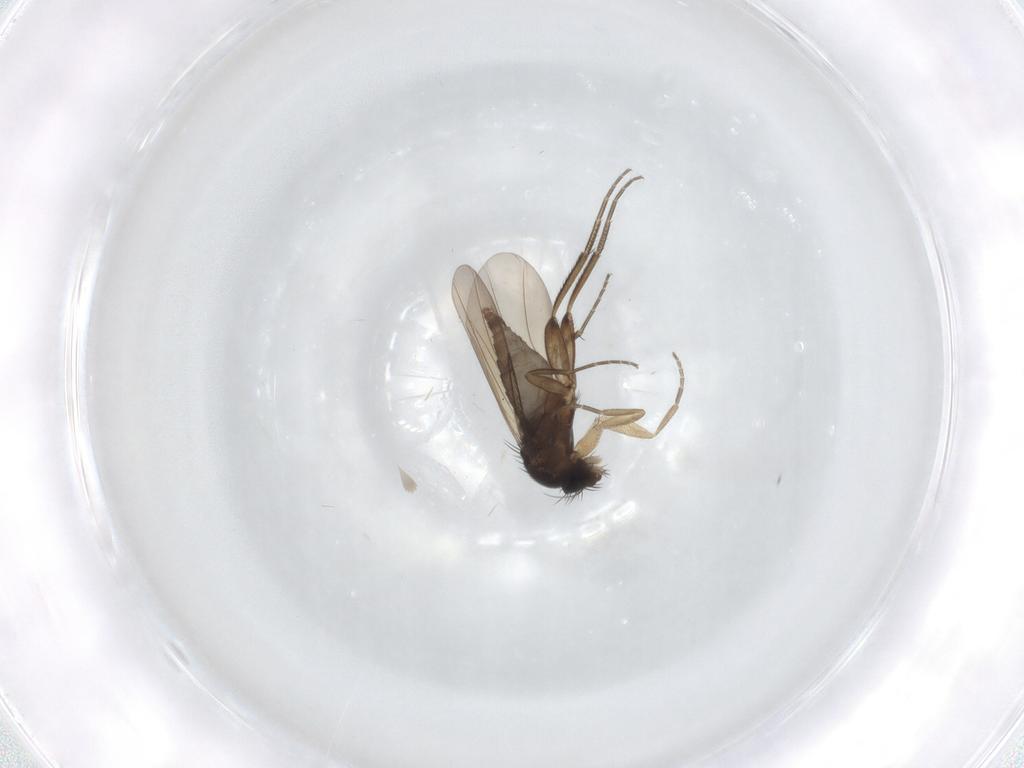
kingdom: Animalia
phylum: Arthropoda
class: Insecta
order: Diptera
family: Phoridae
